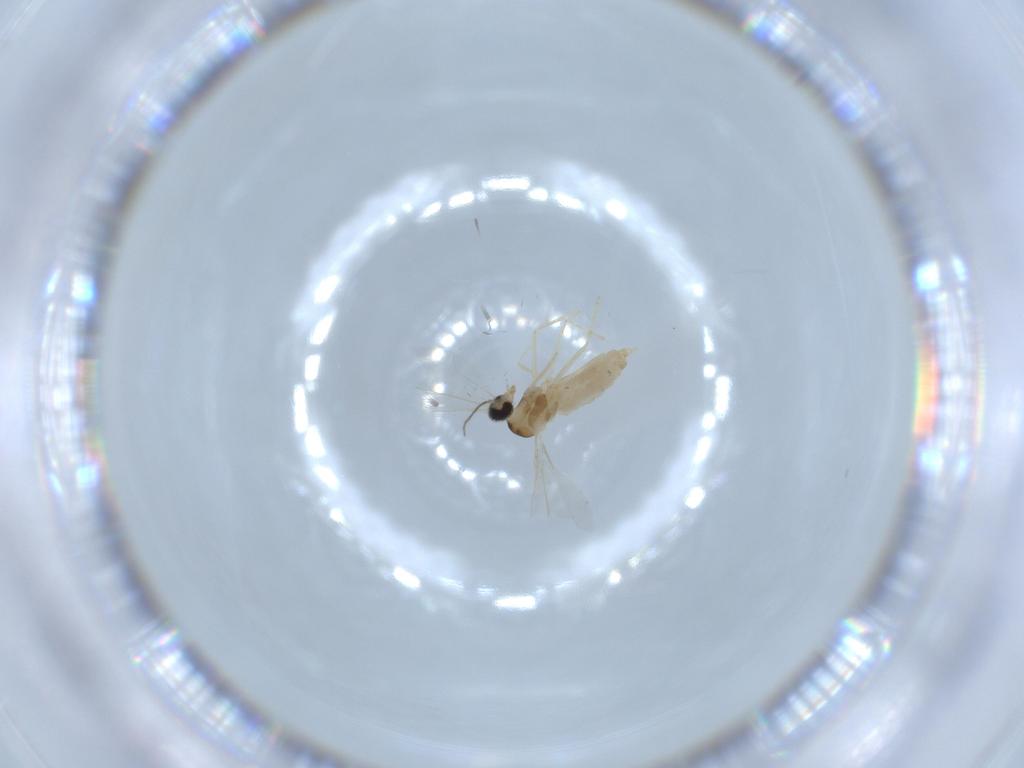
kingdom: Animalia
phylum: Arthropoda
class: Insecta
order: Diptera
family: Cecidomyiidae
